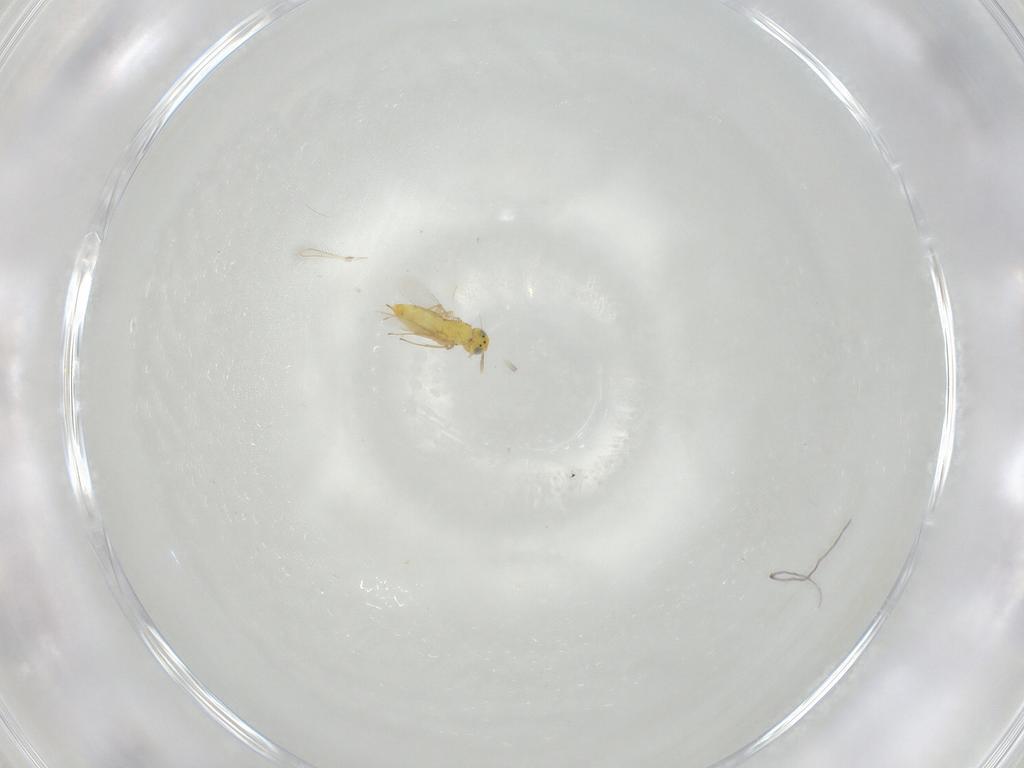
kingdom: Animalia
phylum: Arthropoda
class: Insecta
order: Hymenoptera
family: Mymaridae
